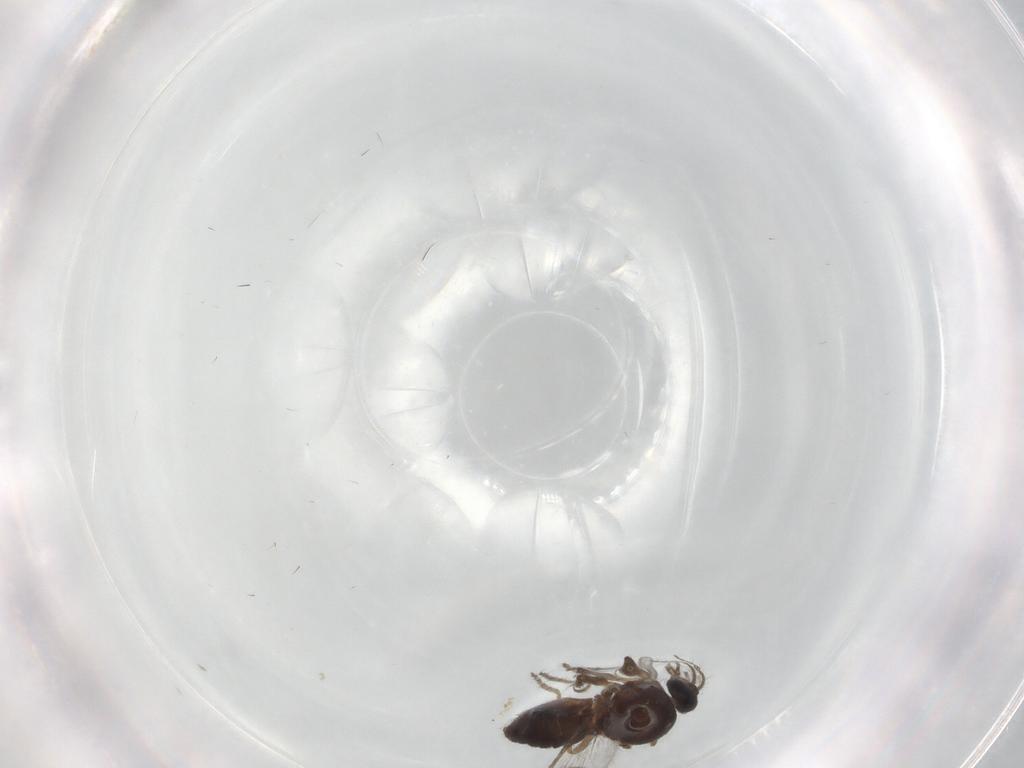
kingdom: Animalia
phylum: Arthropoda
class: Insecta
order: Diptera
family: Ceratopogonidae
